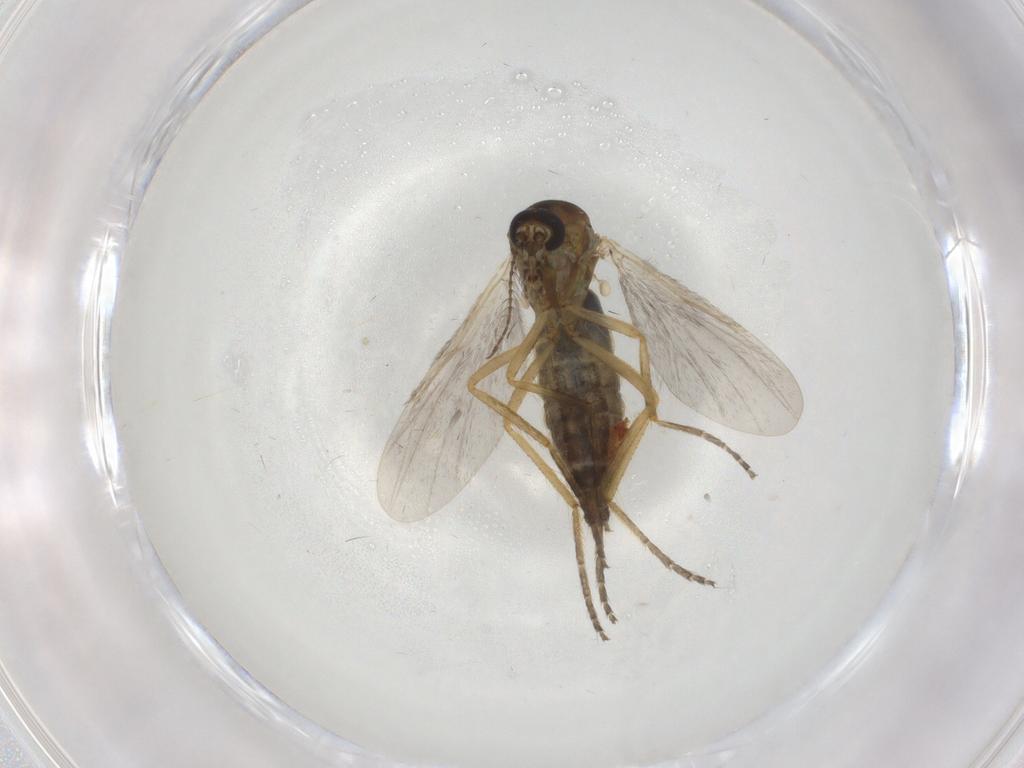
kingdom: Animalia
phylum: Arthropoda
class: Insecta
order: Diptera
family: Ceratopogonidae
